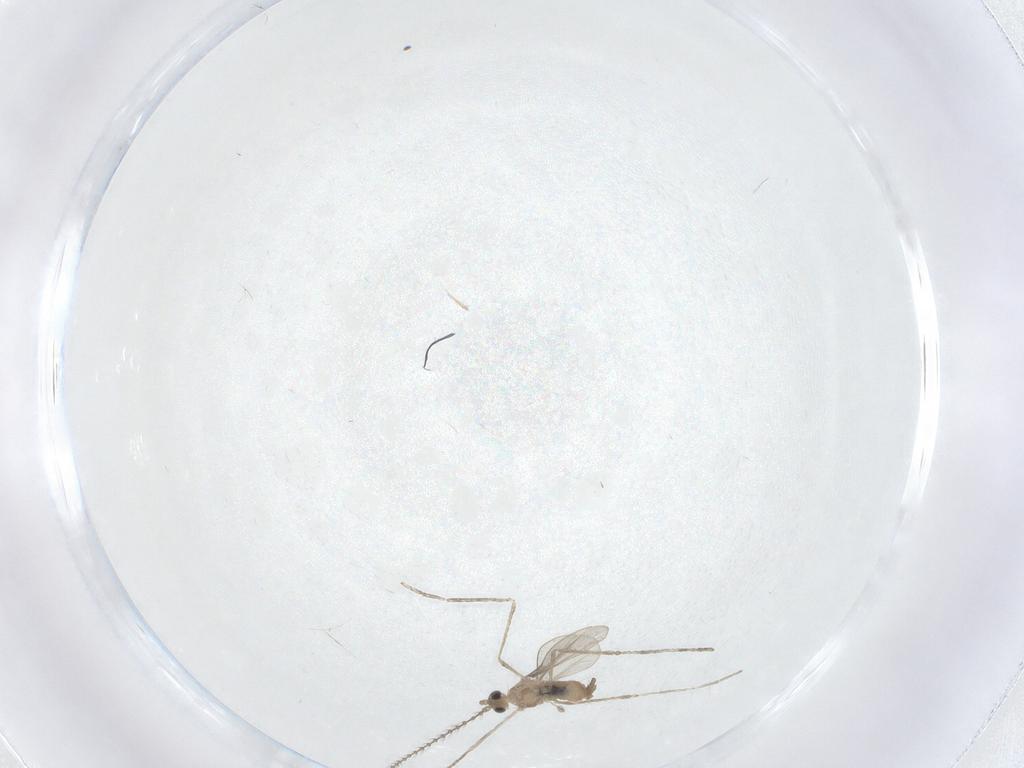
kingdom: Animalia
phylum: Arthropoda
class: Insecta
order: Diptera
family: Cecidomyiidae
